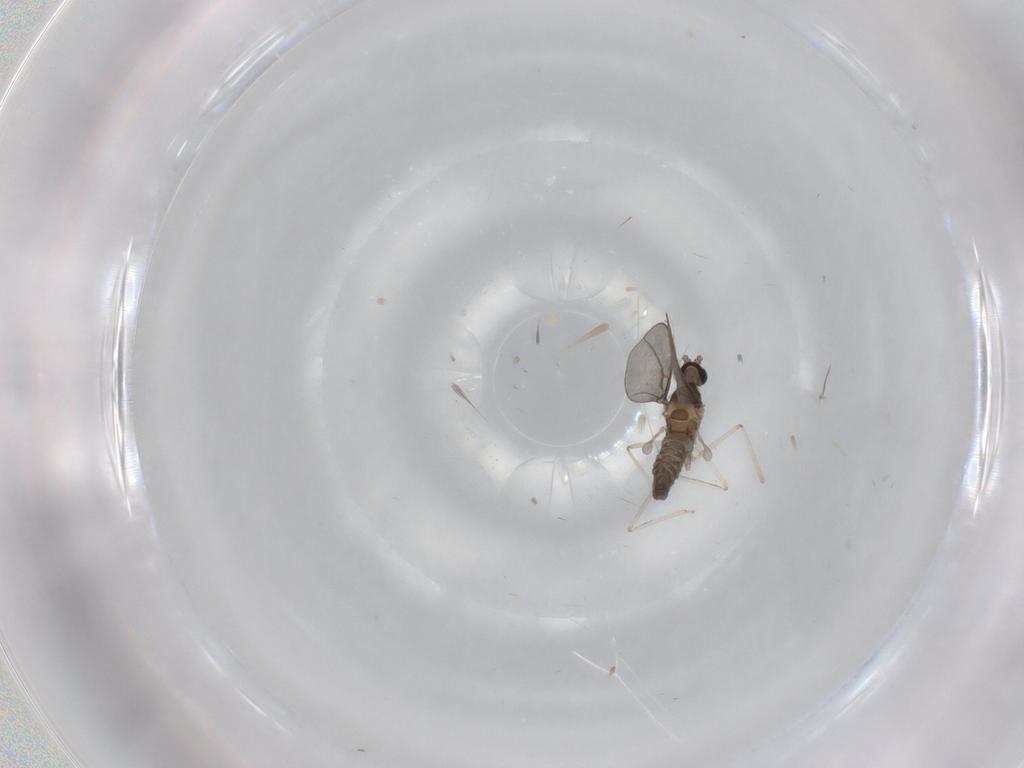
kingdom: Animalia
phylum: Arthropoda
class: Insecta
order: Diptera
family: Cecidomyiidae
